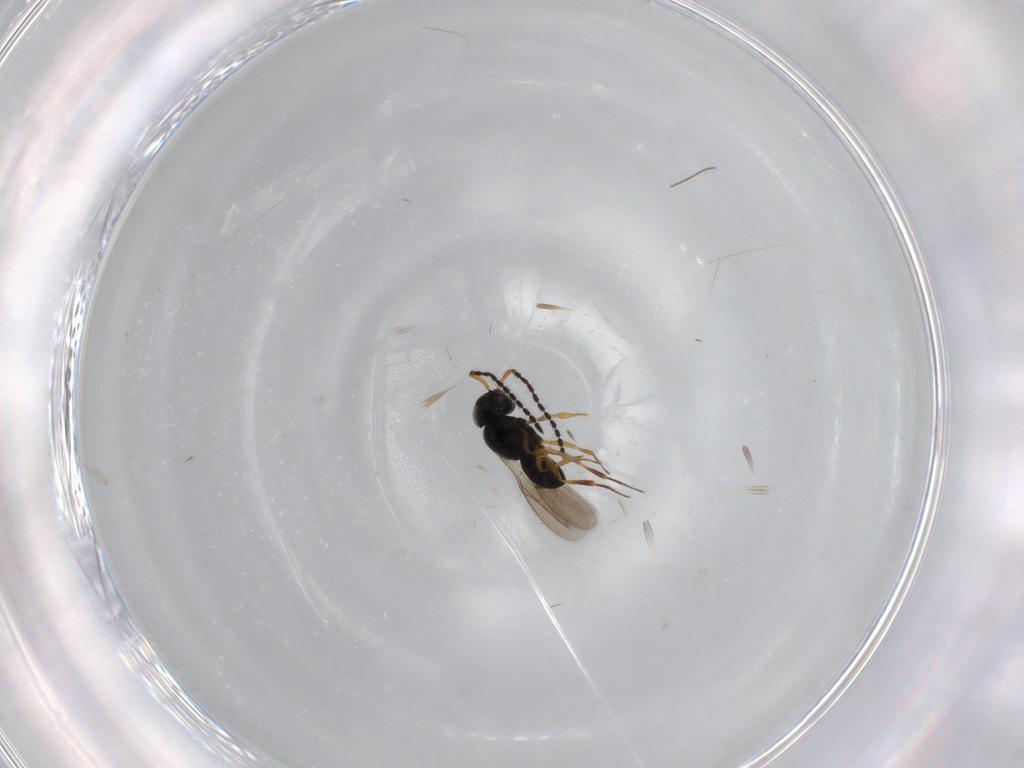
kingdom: Animalia
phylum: Arthropoda
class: Insecta
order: Hymenoptera
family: Scelionidae
